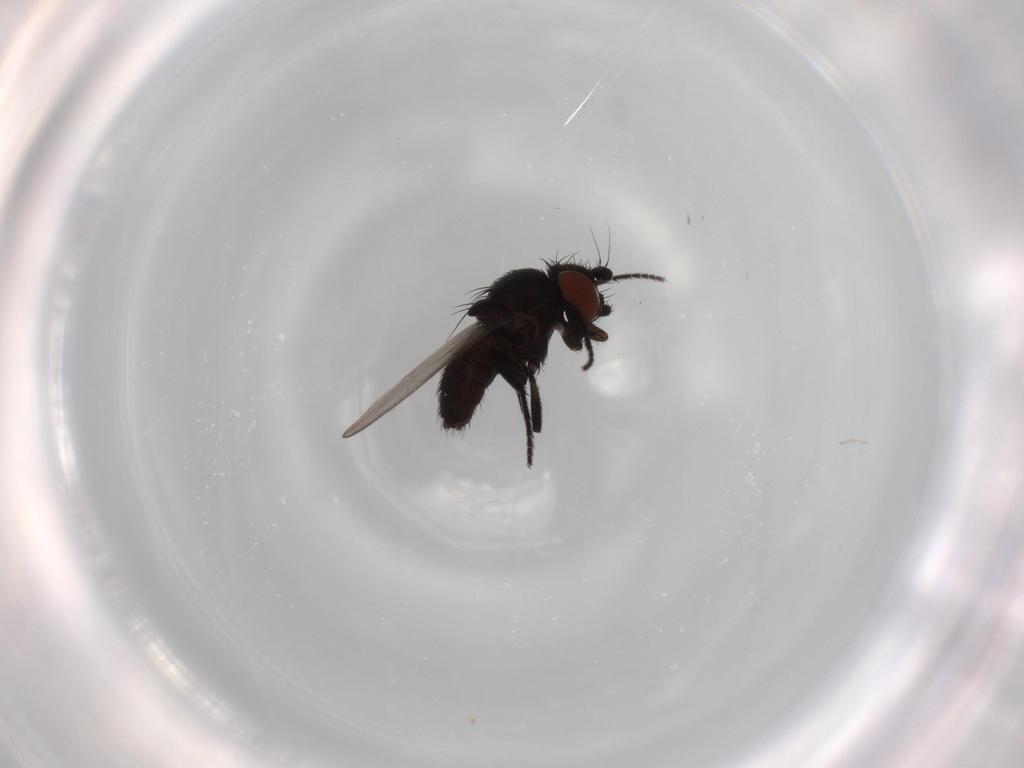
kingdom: Animalia
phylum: Arthropoda
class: Insecta
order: Diptera
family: Milichiidae
